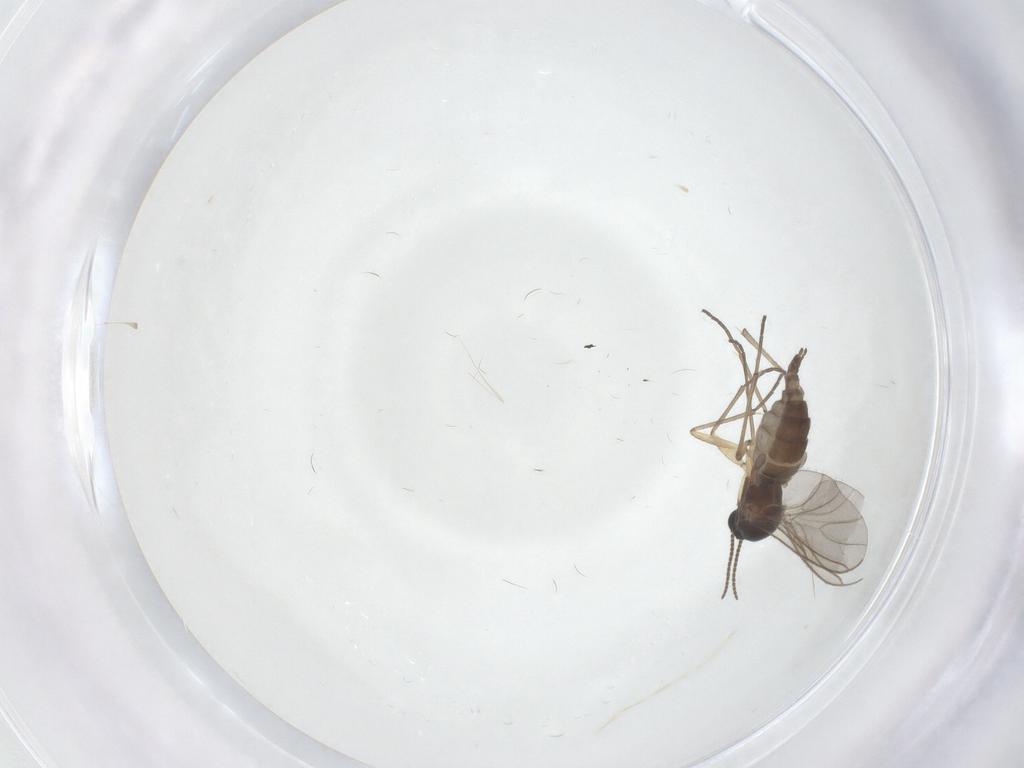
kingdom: Animalia
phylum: Arthropoda
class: Insecta
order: Diptera
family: Sciaridae
